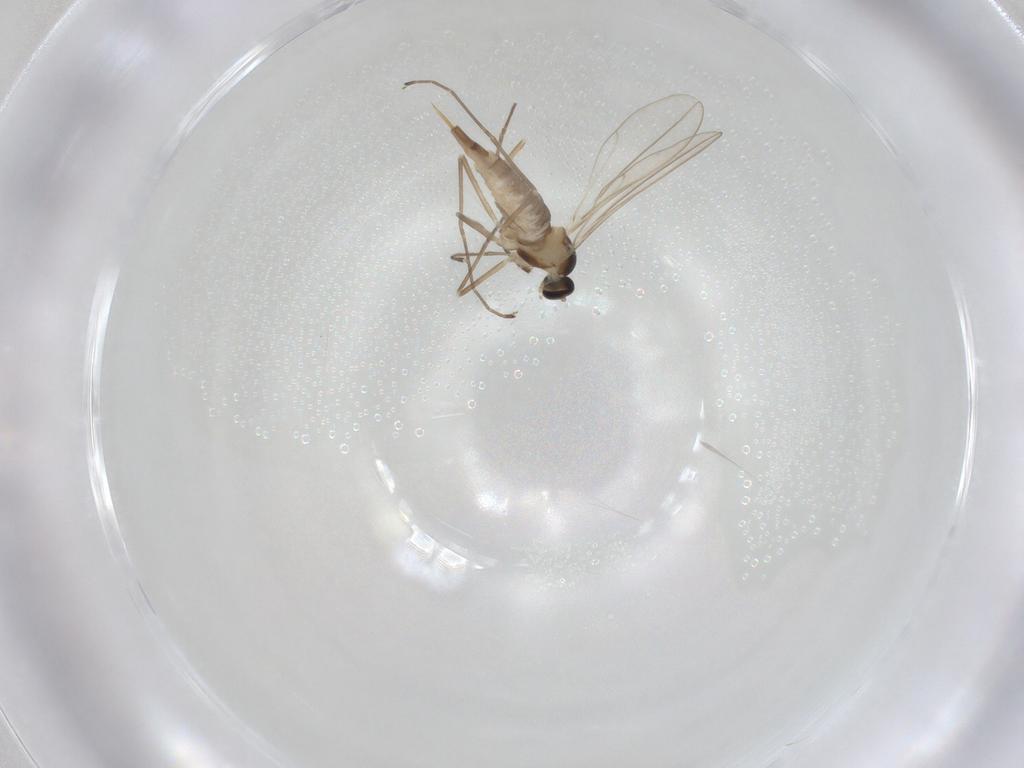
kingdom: Animalia
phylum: Arthropoda
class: Insecta
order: Diptera
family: Cecidomyiidae
